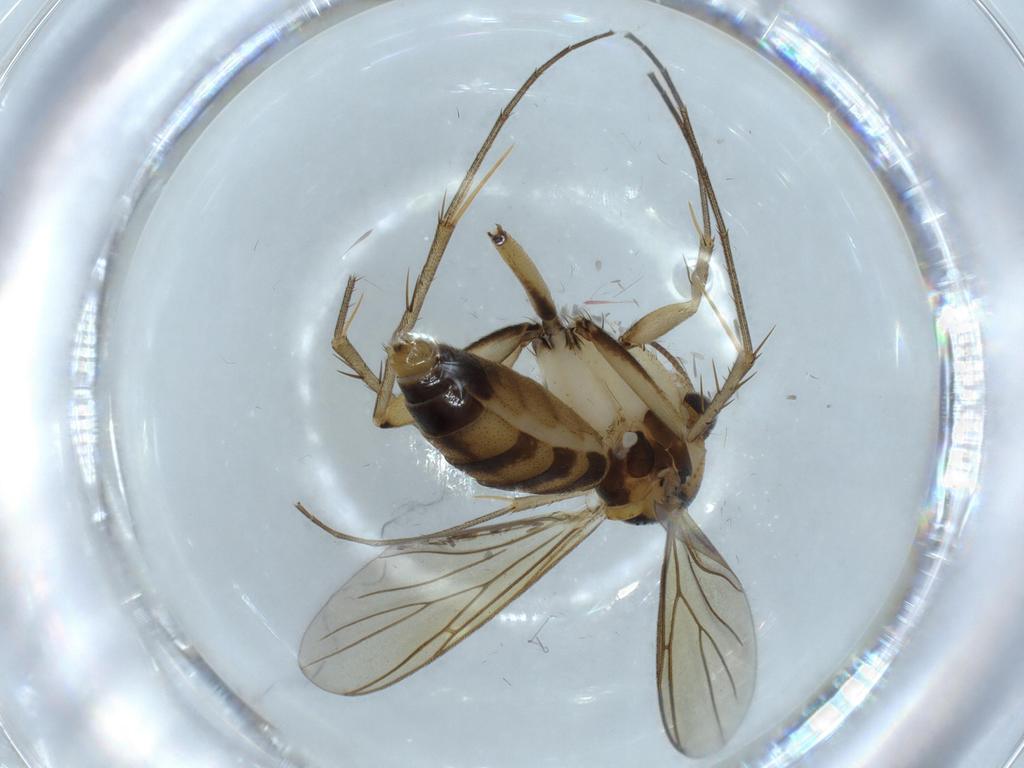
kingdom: Animalia
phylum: Arthropoda
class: Insecta
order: Diptera
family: Mycetophilidae
